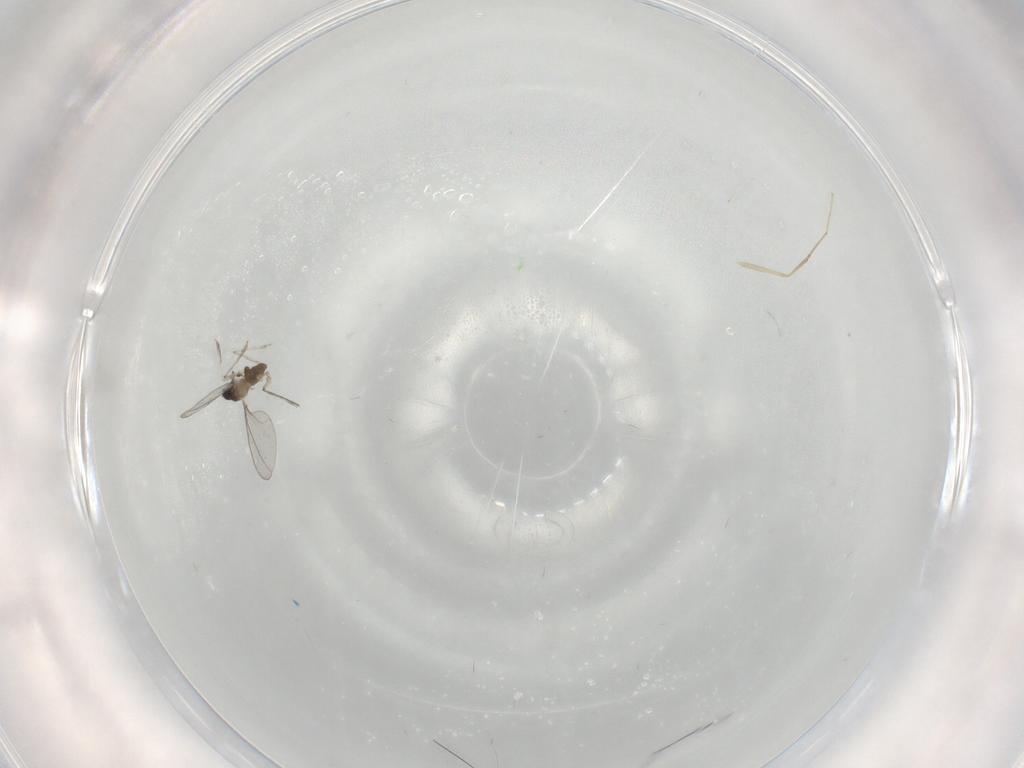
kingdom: Animalia
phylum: Arthropoda
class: Insecta
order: Diptera
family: Cecidomyiidae
